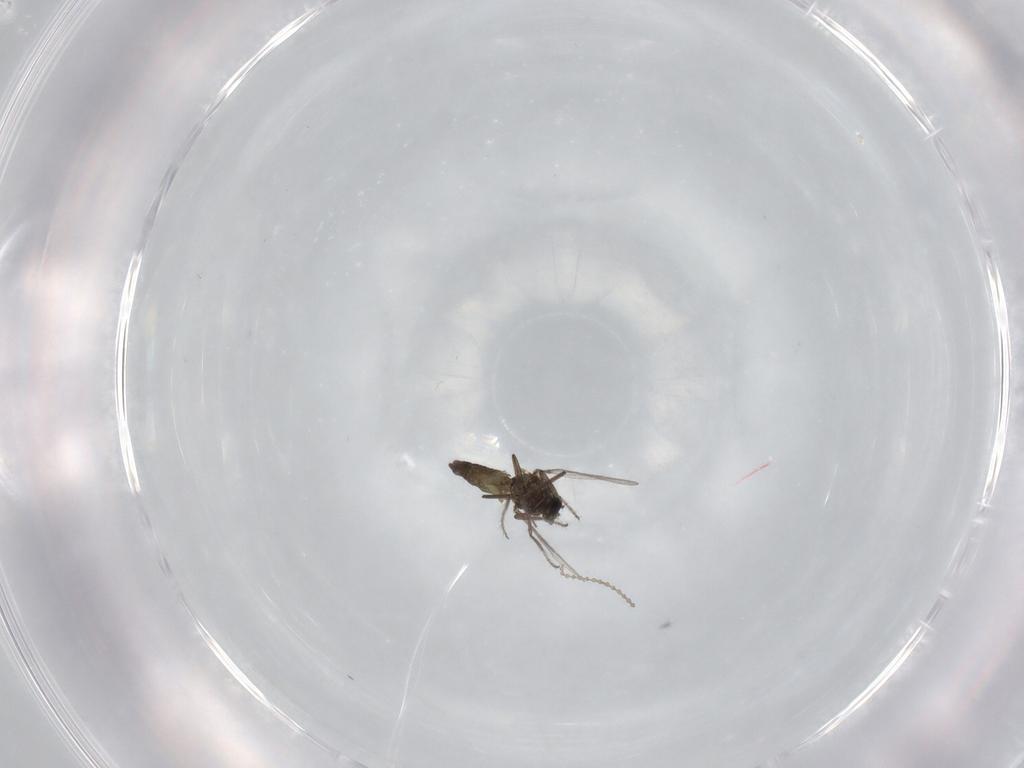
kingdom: Animalia
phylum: Arthropoda
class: Insecta
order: Diptera
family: Ceratopogonidae
